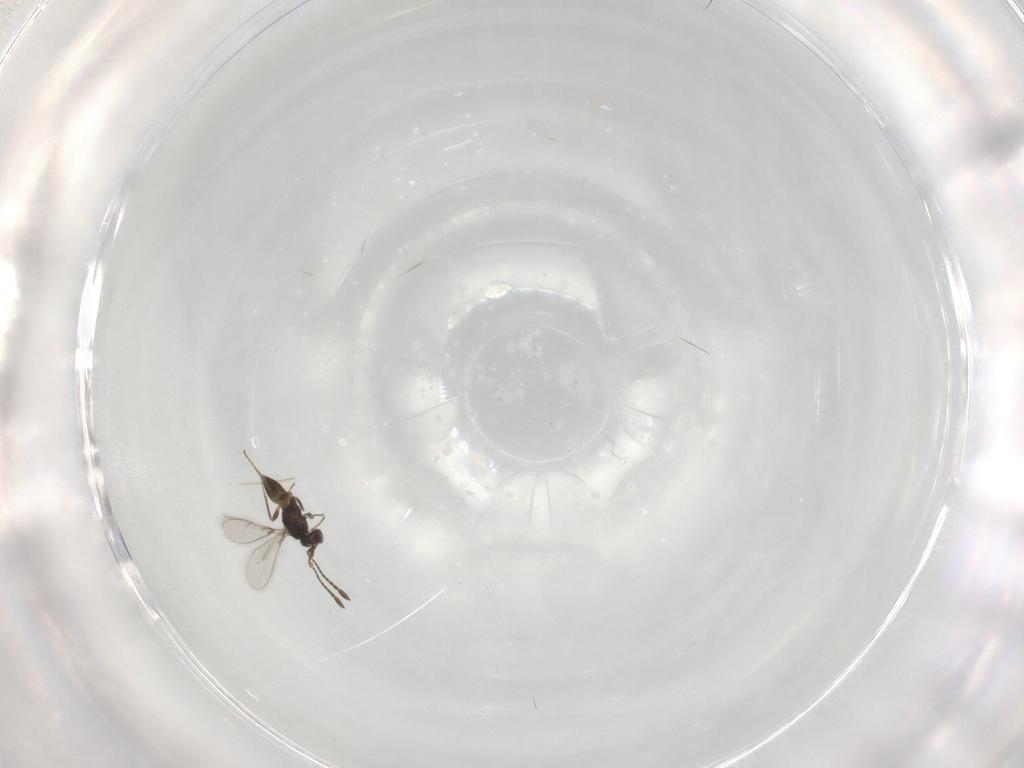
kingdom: Animalia
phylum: Arthropoda
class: Insecta
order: Hymenoptera
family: Mymaridae
